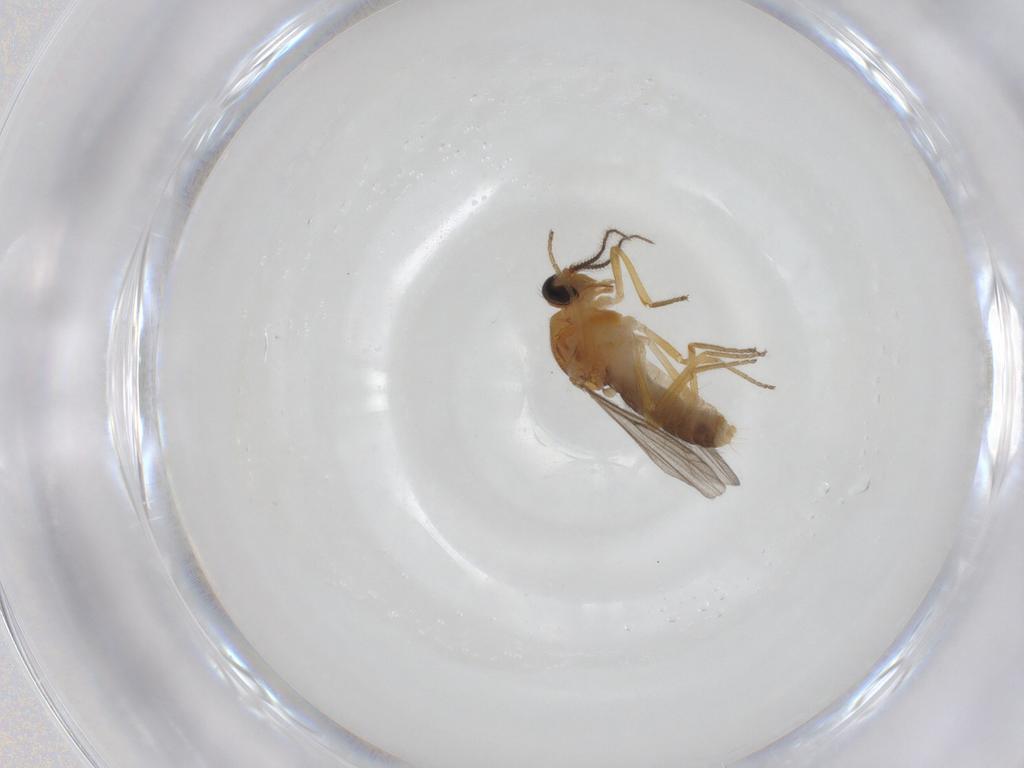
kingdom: Animalia
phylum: Arthropoda
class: Insecta
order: Diptera
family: Ceratopogonidae
